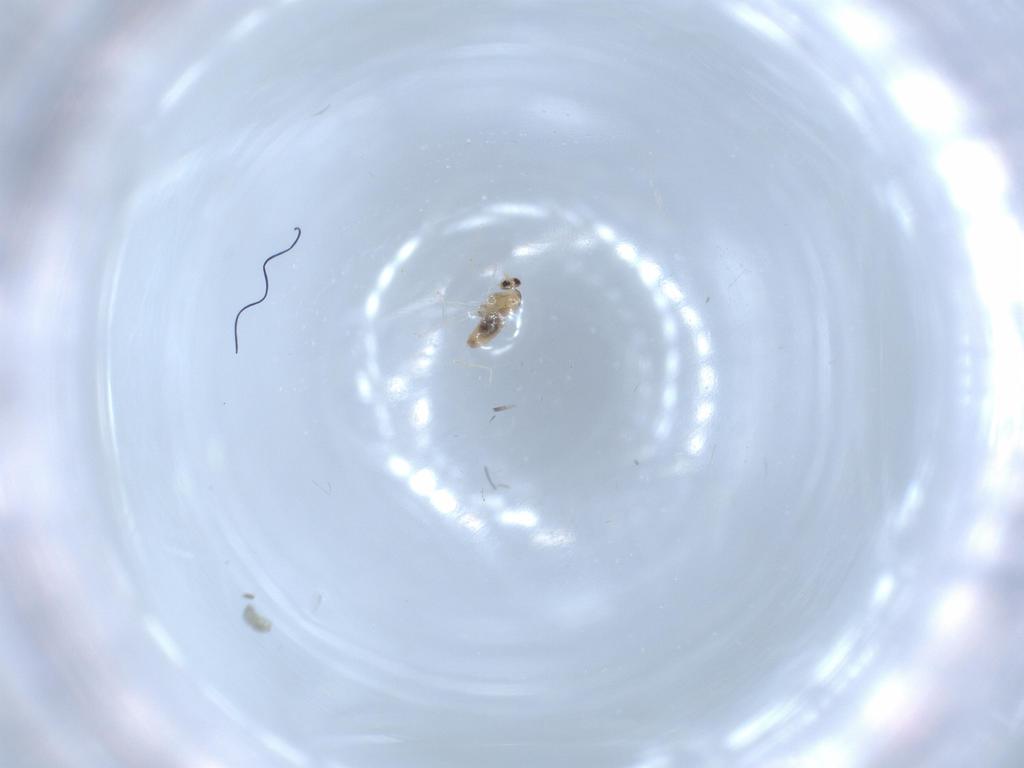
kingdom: Animalia
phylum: Arthropoda
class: Insecta
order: Diptera
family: Cecidomyiidae
